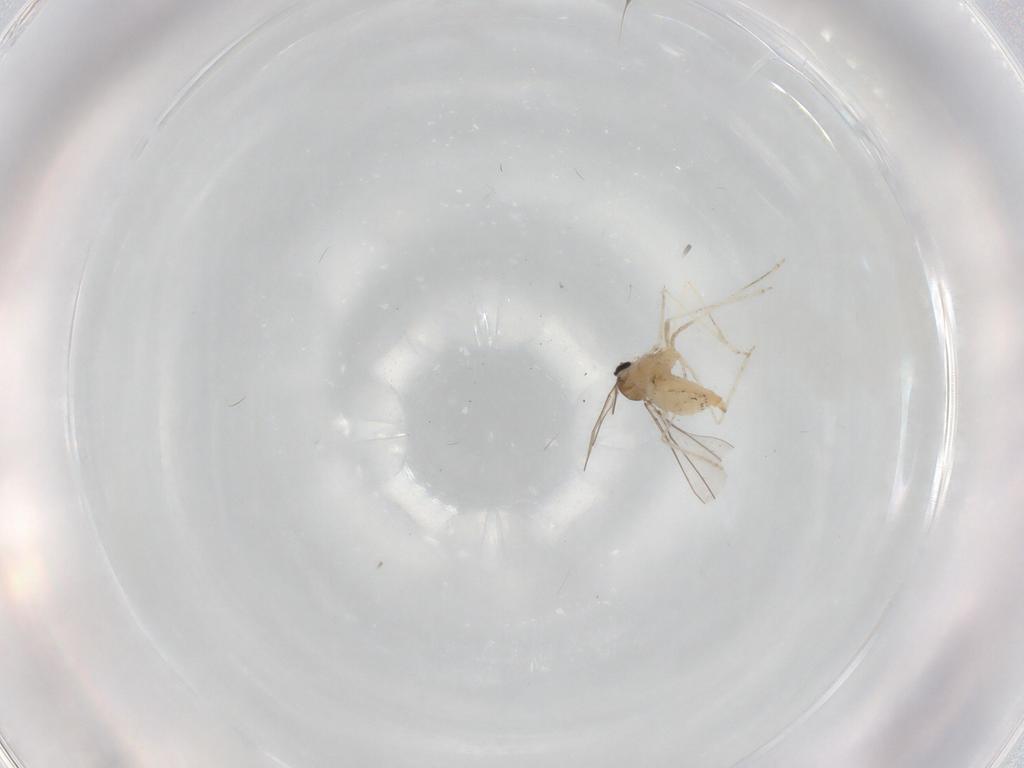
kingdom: Animalia
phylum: Arthropoda
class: Insecta
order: Diptera
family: Cecidomyiidae
